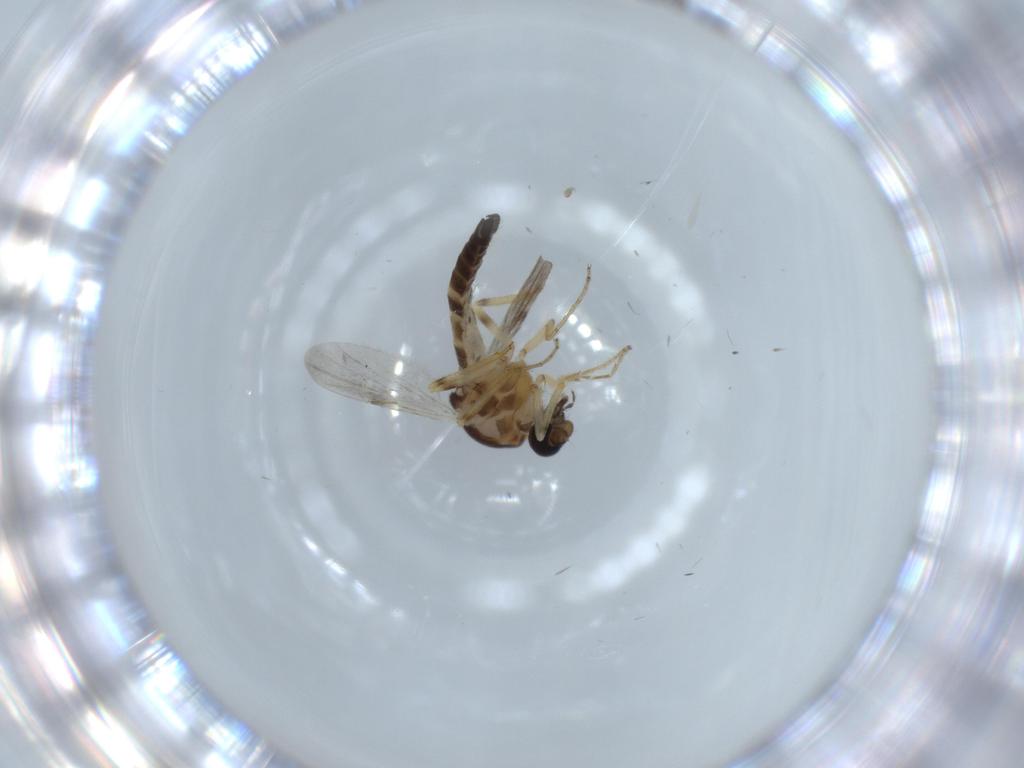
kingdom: Animalia
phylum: Arthropoda
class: Insecta
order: Diptera
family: Ceratopogonidae
